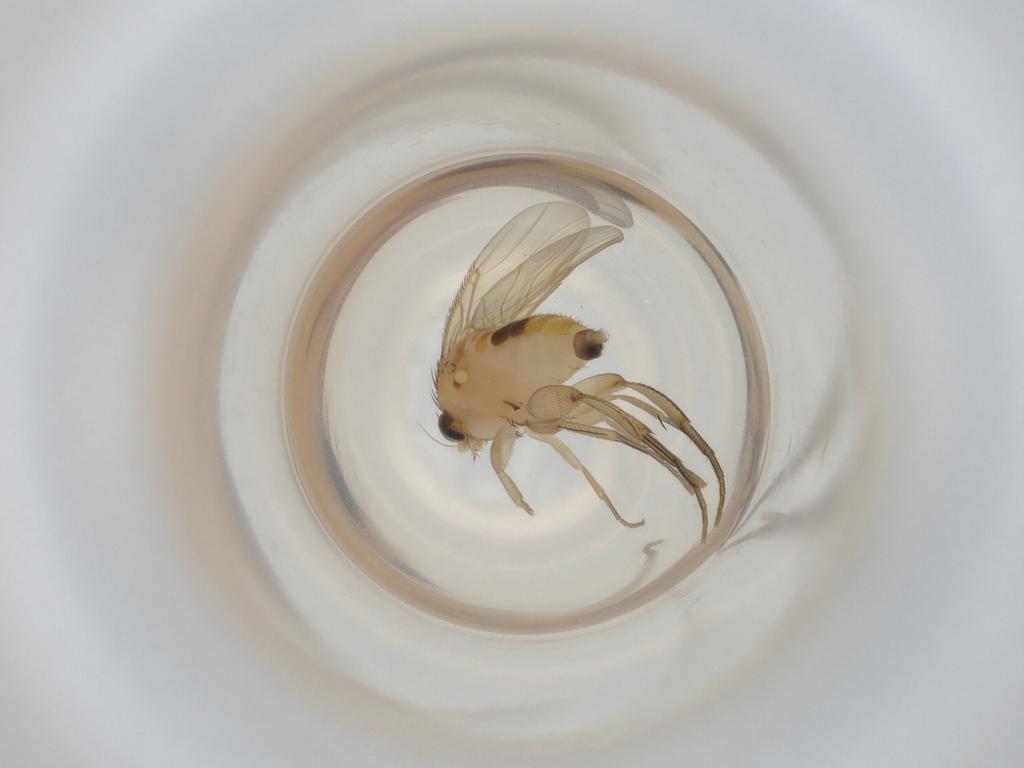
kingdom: Animalia
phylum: Arthropoda
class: Insecta
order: Diptera
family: Phoridae
